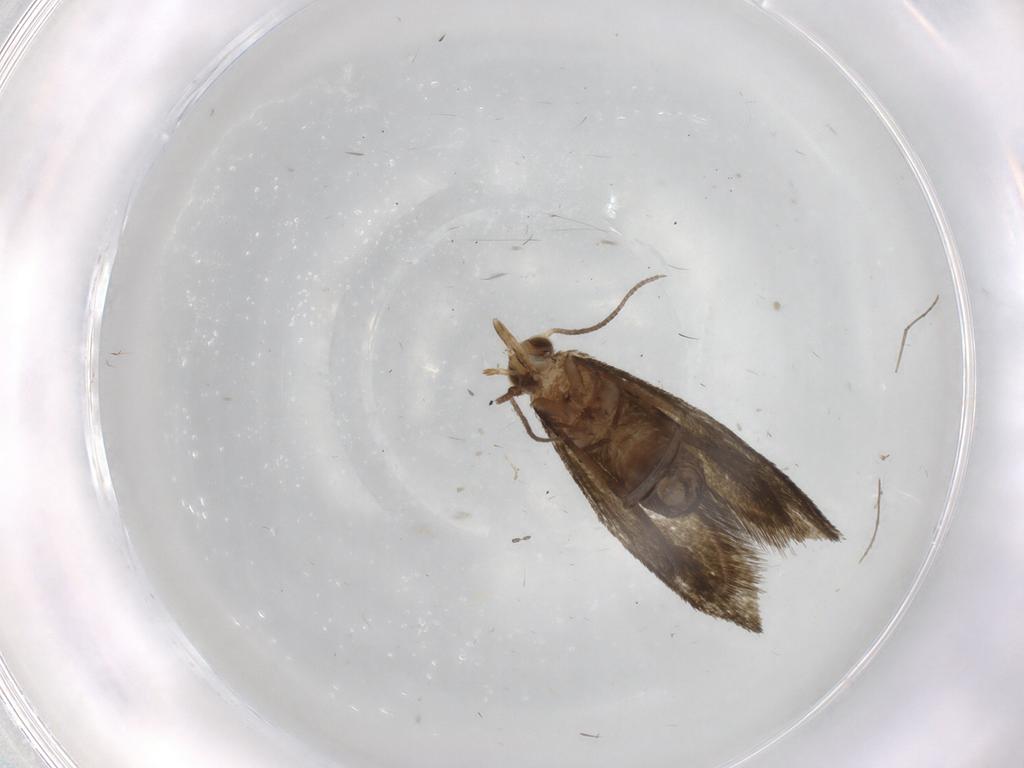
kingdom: Animalia
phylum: Arthropoda
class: Insecta
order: Lepidoptera
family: Tineidae
